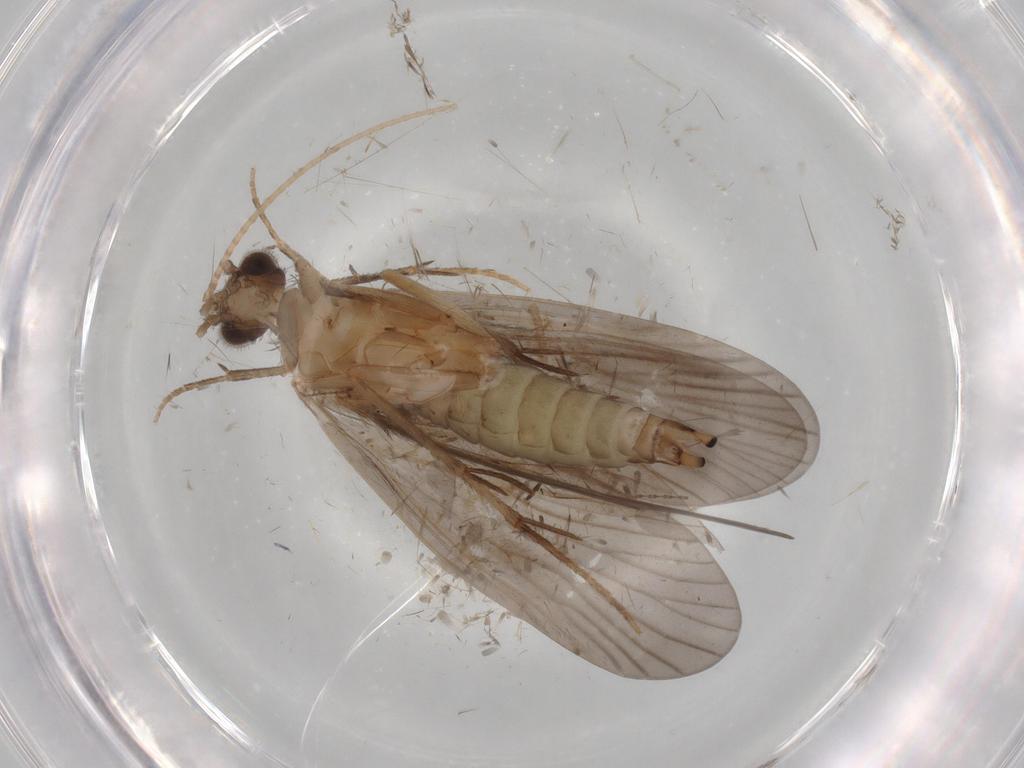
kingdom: Animalia
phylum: Arthropoda
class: Insecta
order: Trichoptera
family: Philopotamidae
